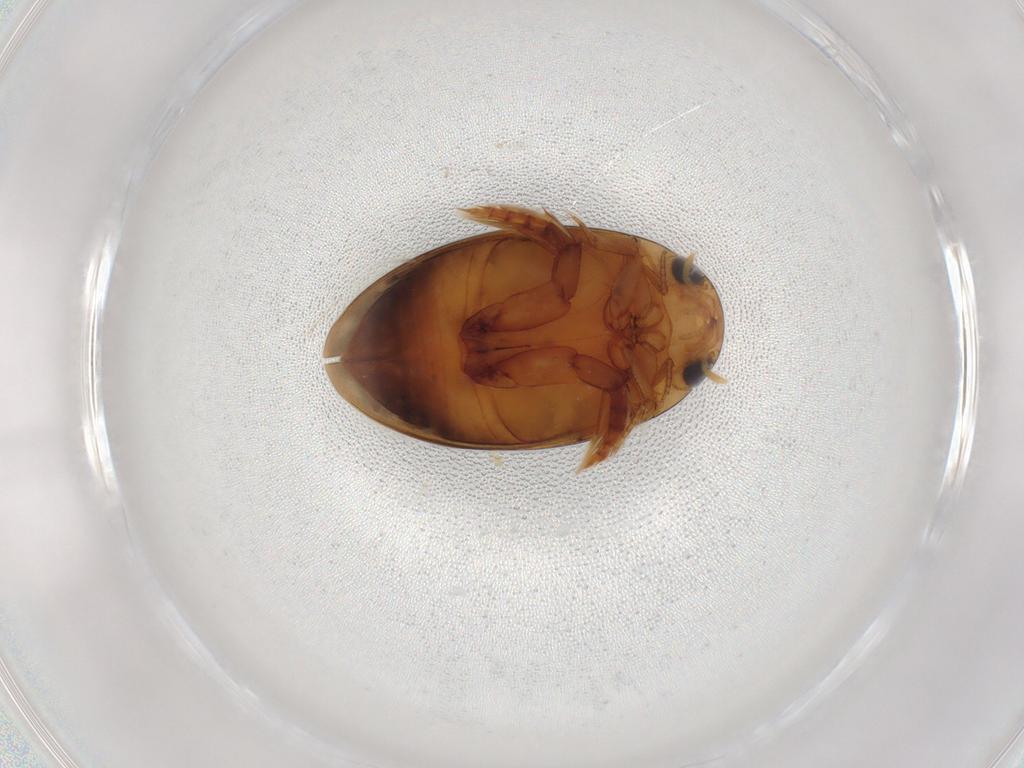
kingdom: Animalia
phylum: Arthropoda
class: Insecta
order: Coleoptera
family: Dytiscidae
